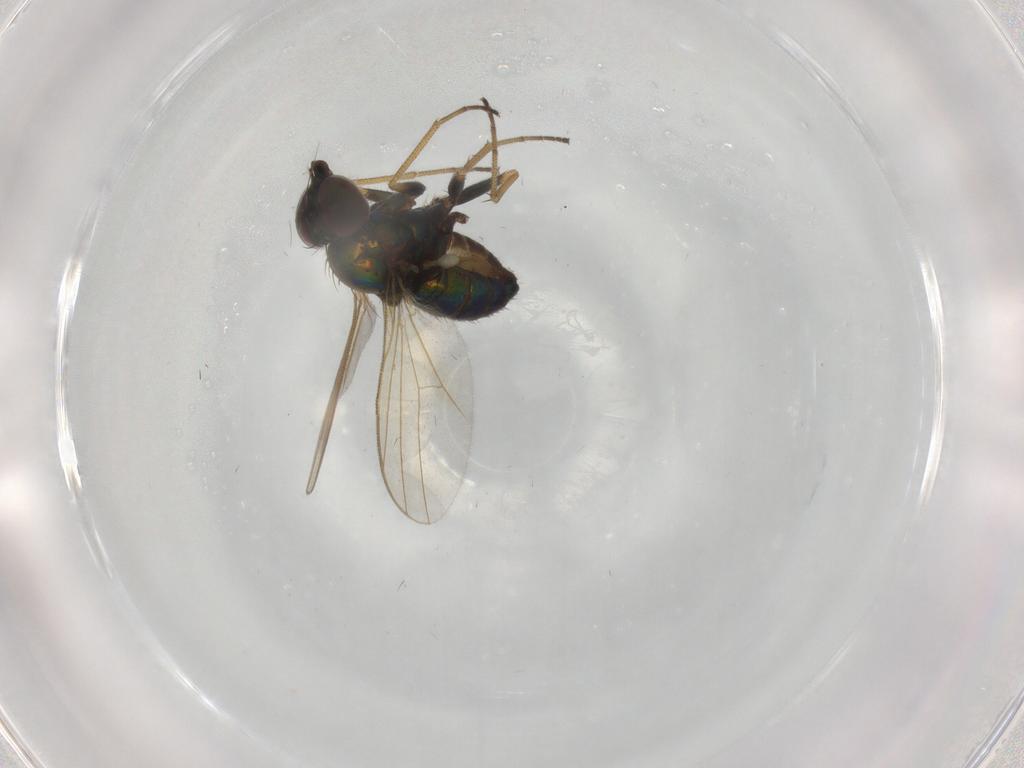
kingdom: Animalia
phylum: Arthropoda
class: Insecta
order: Diptera
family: Dolichopodidae
